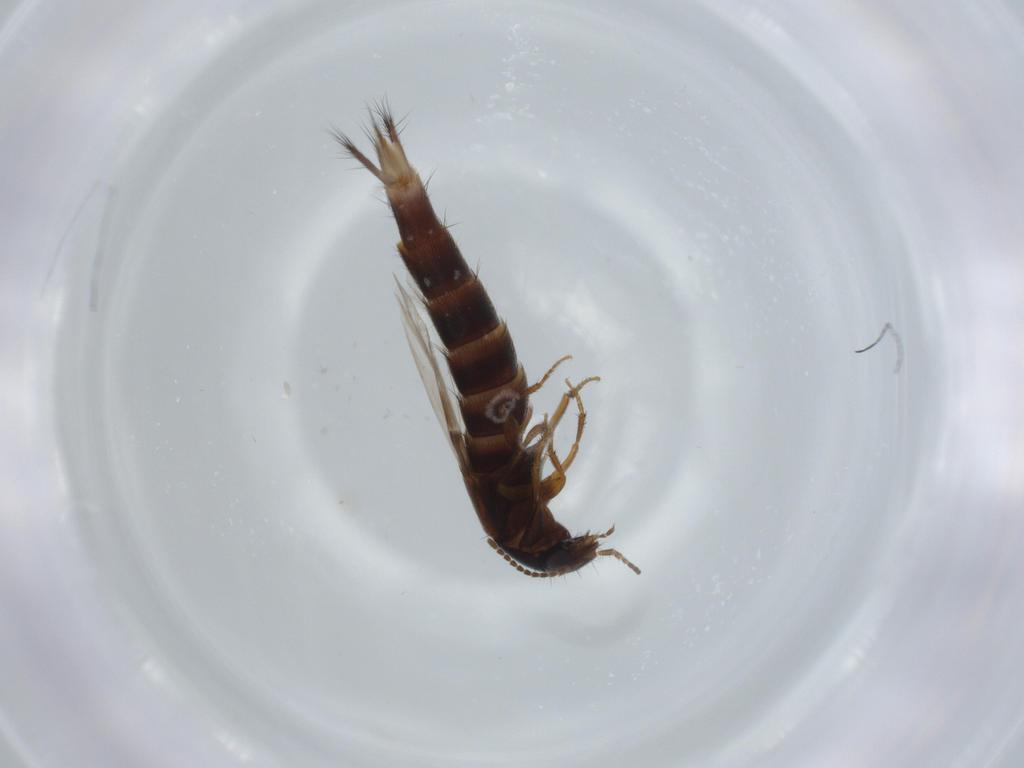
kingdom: Animalia
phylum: Arthropoda
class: Insecta
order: Coleoptera
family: Staphylinidae
